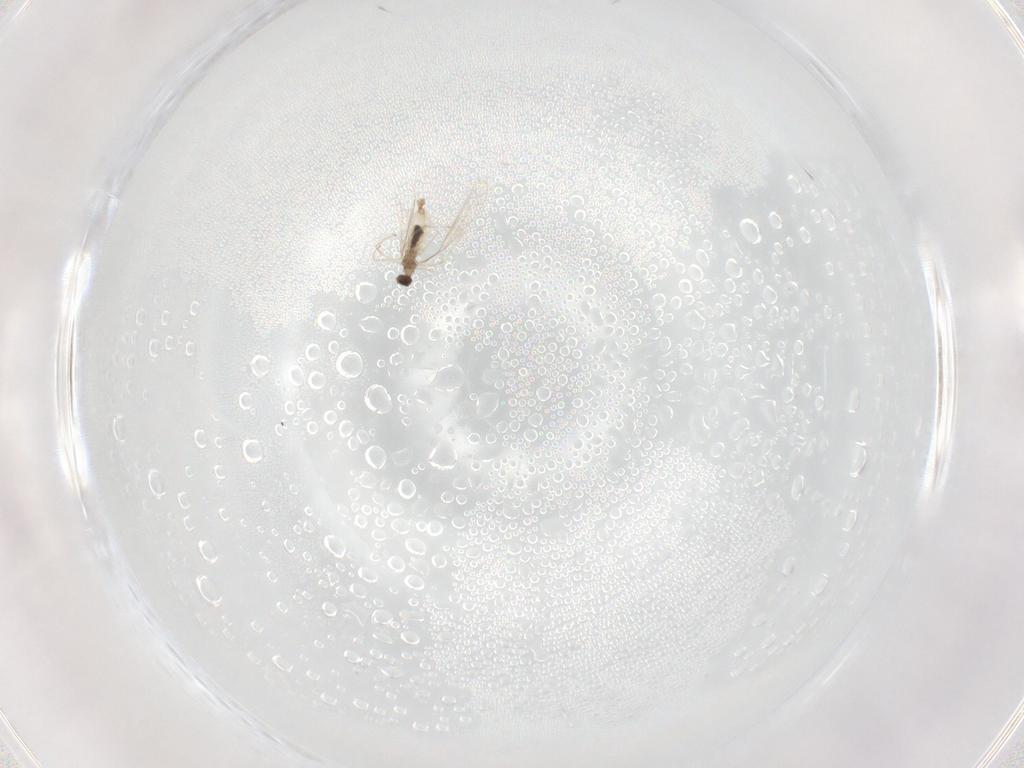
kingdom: Animalia
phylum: Arthropoda
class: Insecta
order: Diptera
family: Cecidomyiidae
